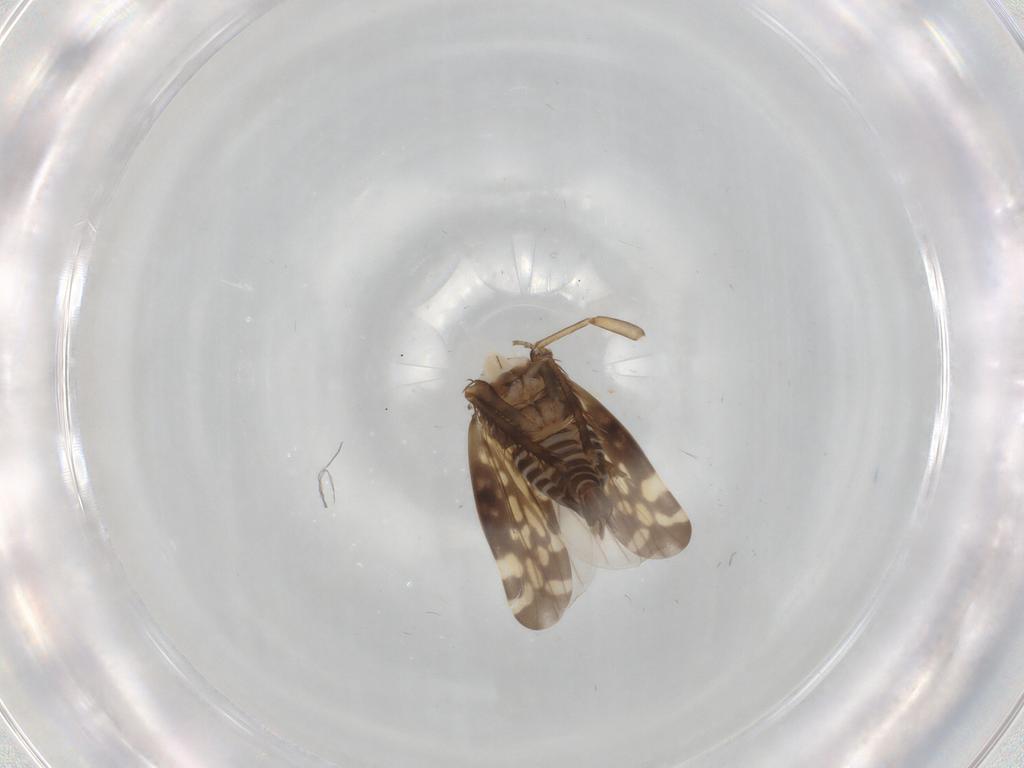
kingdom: Animalia
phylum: Arthropoda
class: Insecta
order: Hemiptera
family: Cicadellidae
